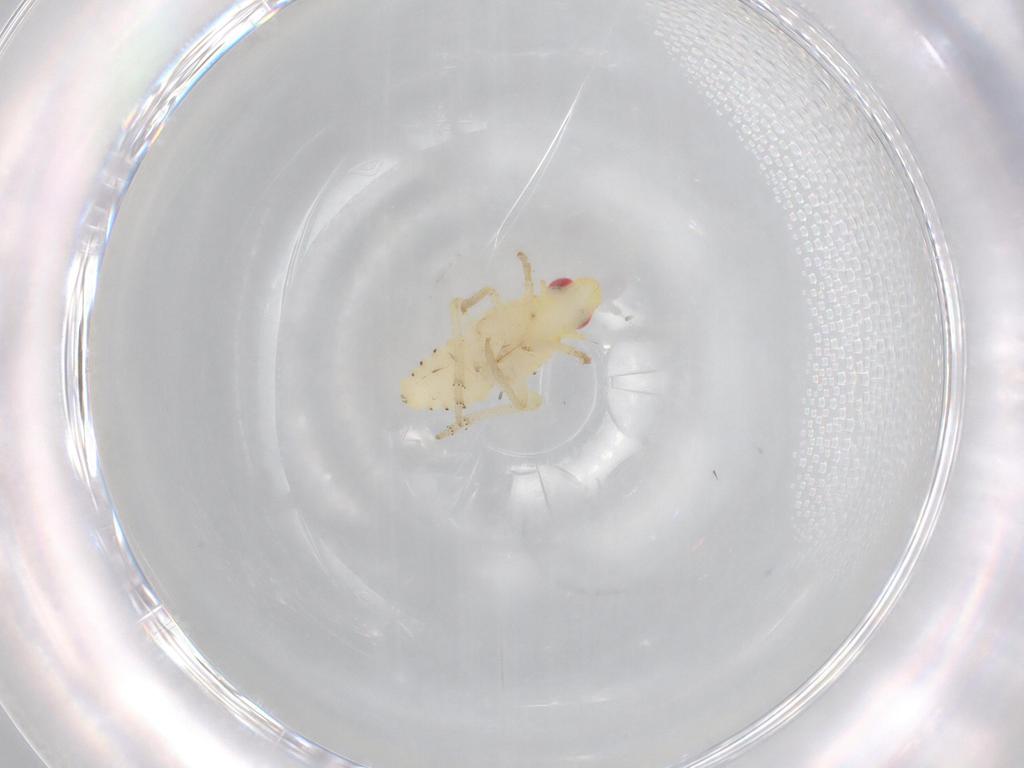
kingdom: Animalia
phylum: Arthropoda
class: Insecta
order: Hemiptera
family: Tropiduchidae
